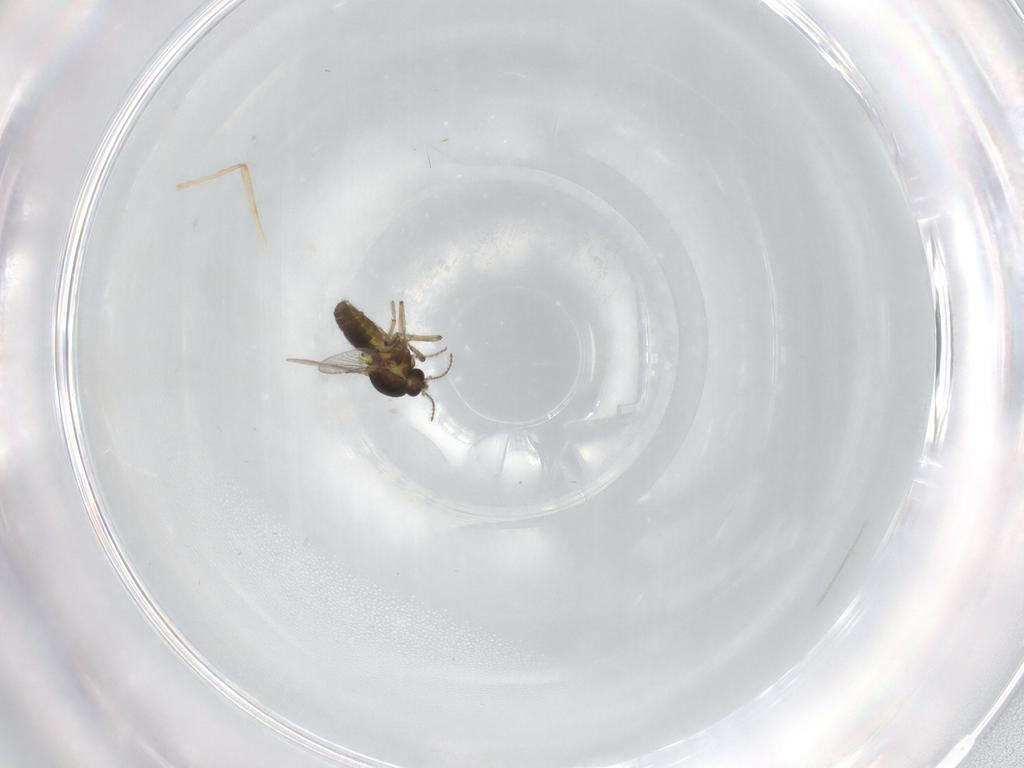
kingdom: Animalia
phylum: Arthropoda
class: Insecta
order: Diptera
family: Ceratopogonidae
